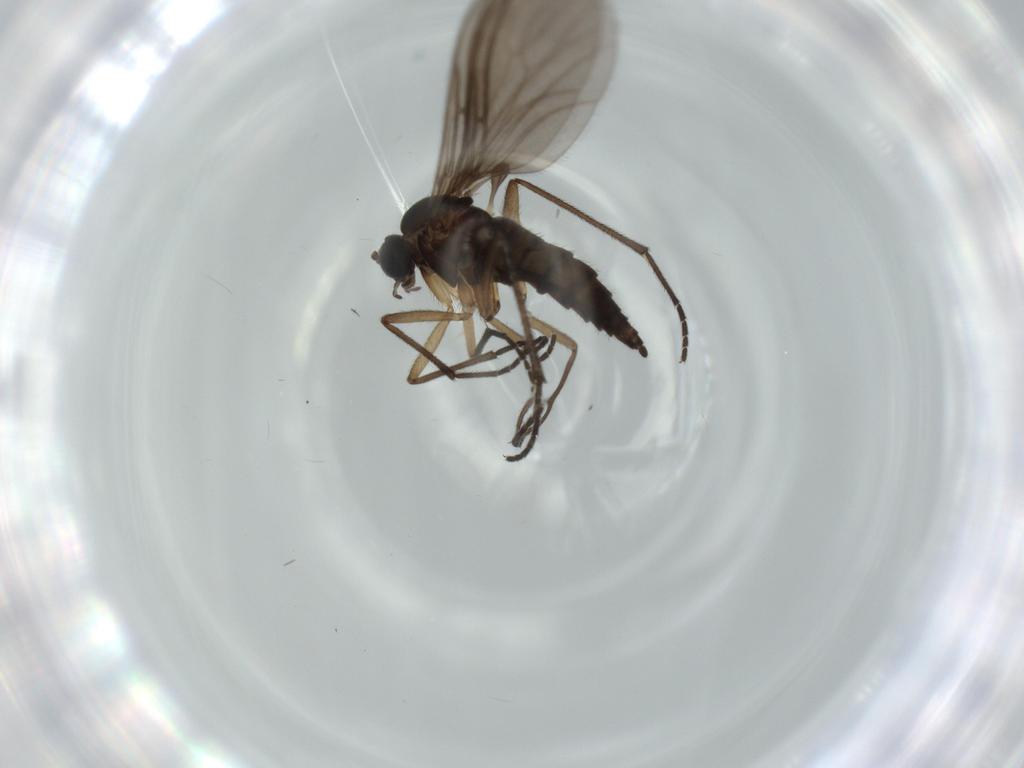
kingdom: Animalia
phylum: Arthropoda
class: Insecta
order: Diptera
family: Sciaridae
